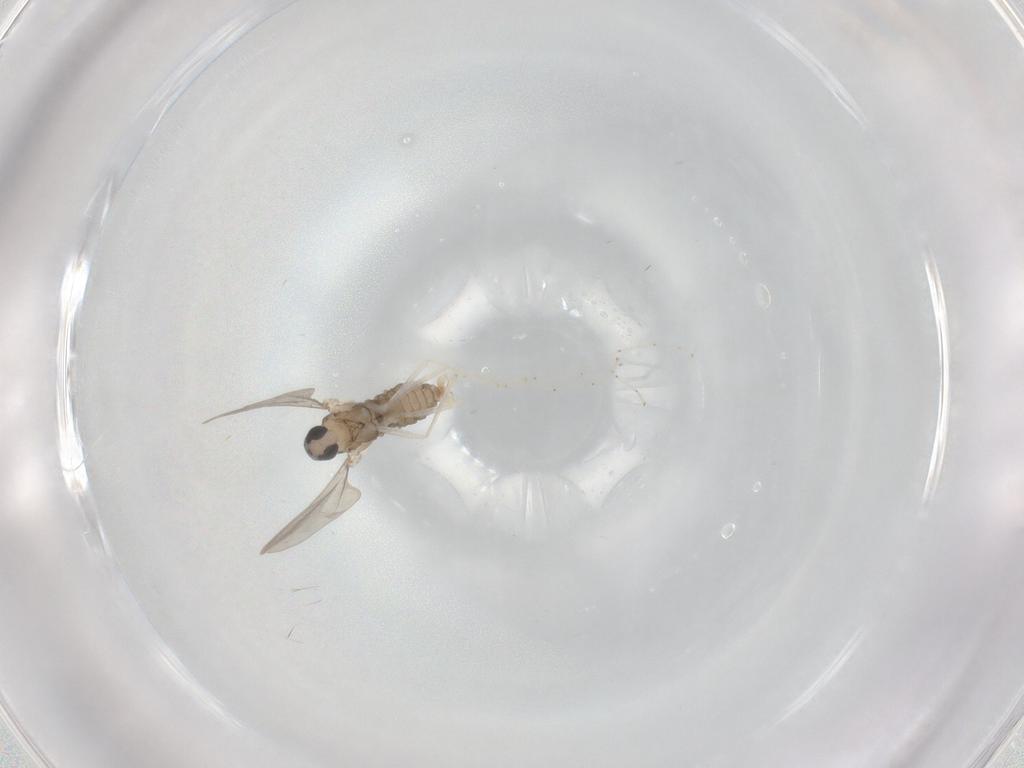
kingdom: Animalia
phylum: Arthropoda
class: Insecta
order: Diptera
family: Cecidomyiidae
